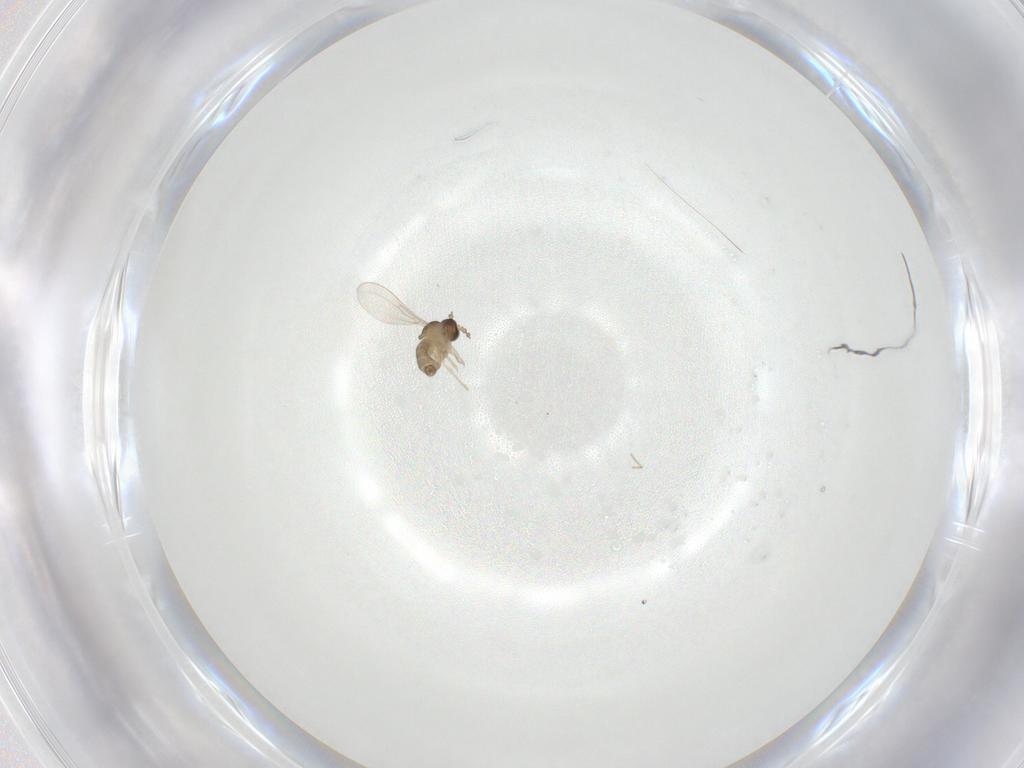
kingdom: Animalia
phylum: Arthropoda
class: Insecta
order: Diptera
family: Cecidomyiidae
